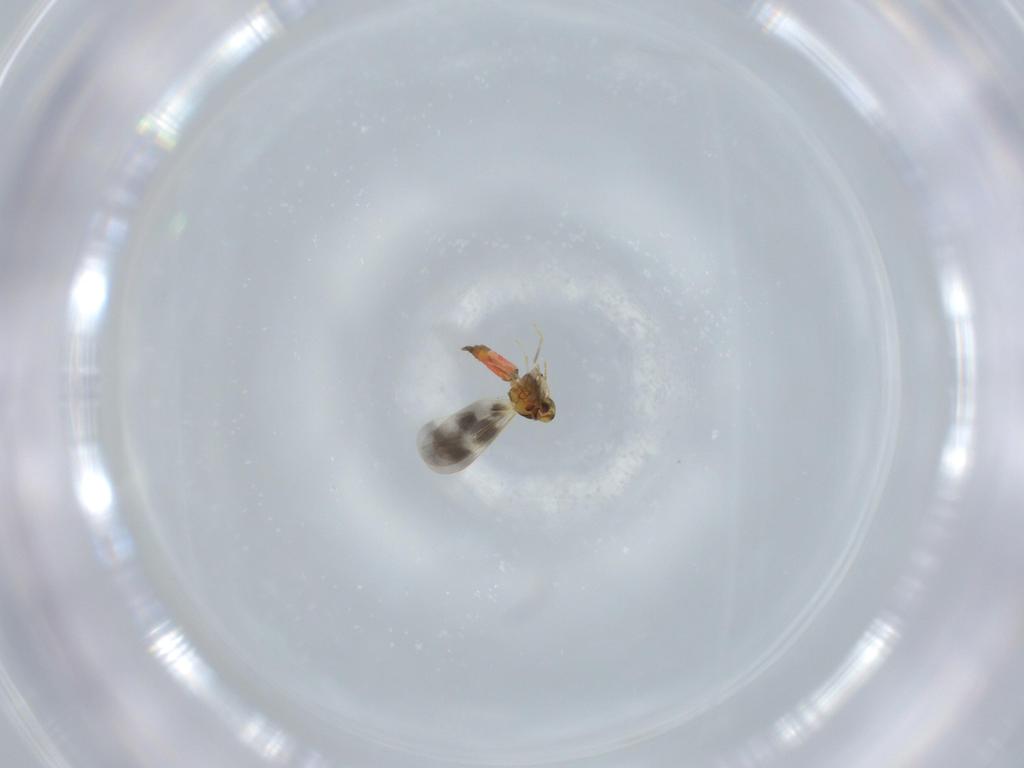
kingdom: Animalia
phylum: Arthropoda
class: Insecta
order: Hemiptera
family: Aleyrodidae
